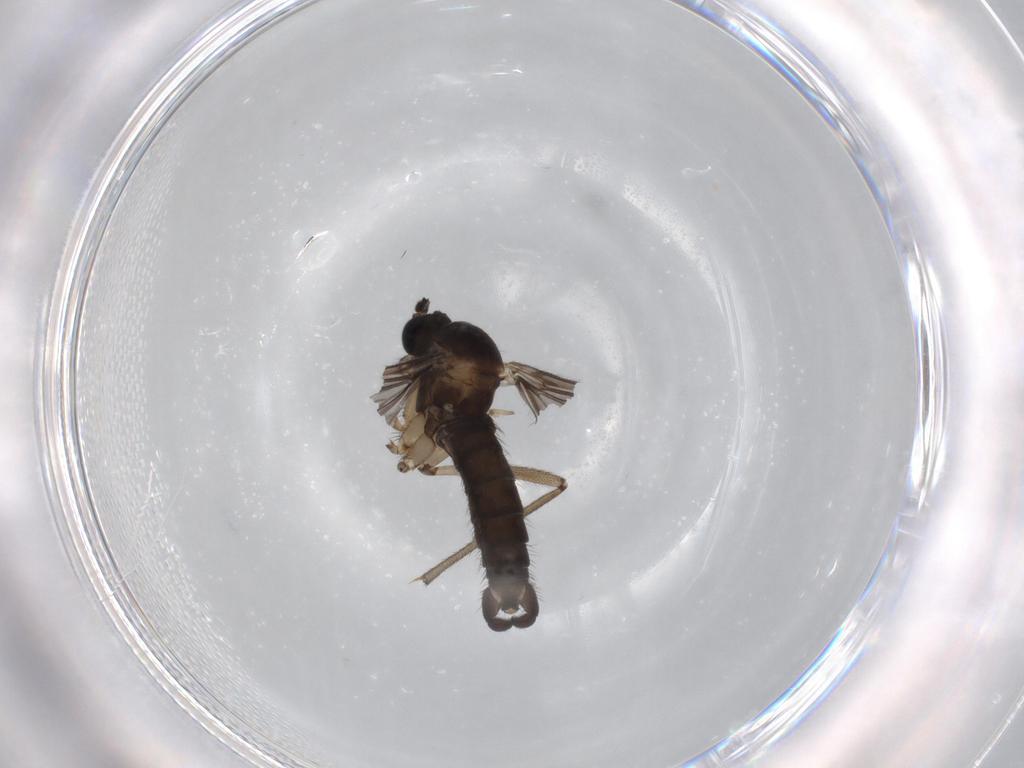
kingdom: Animalia
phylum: Arthropoda
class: Insecta
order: Diptera
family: Sciaridae
